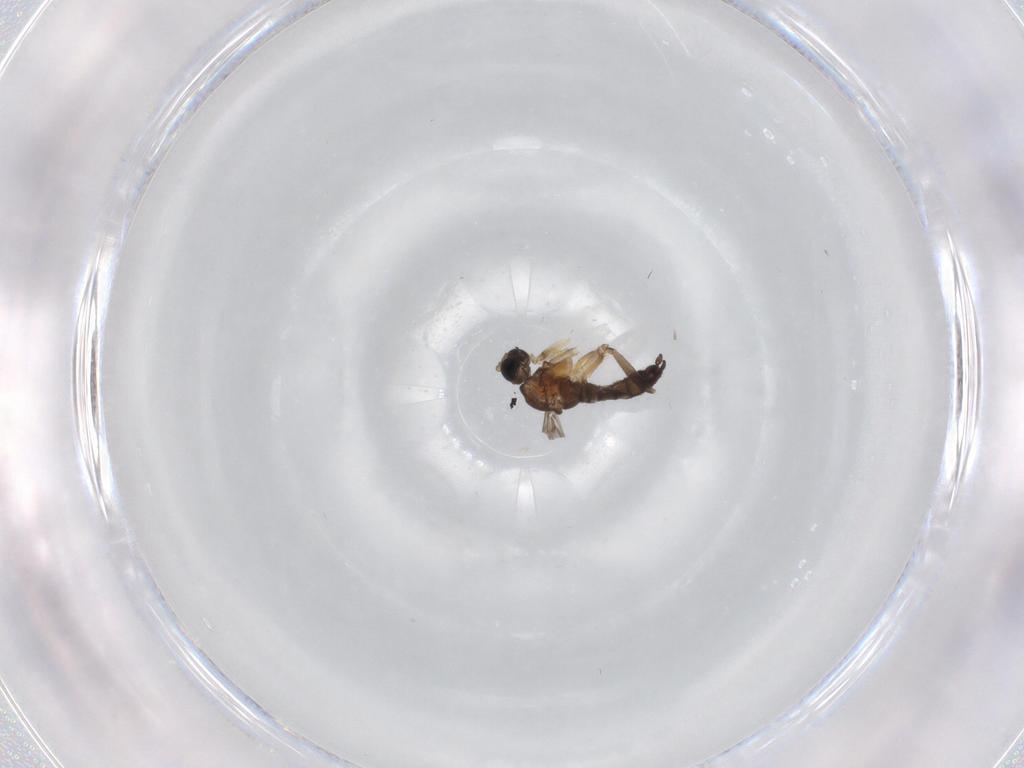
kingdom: Animalia
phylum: Arthropoda
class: Insecta
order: Diptera
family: Sciaridae
